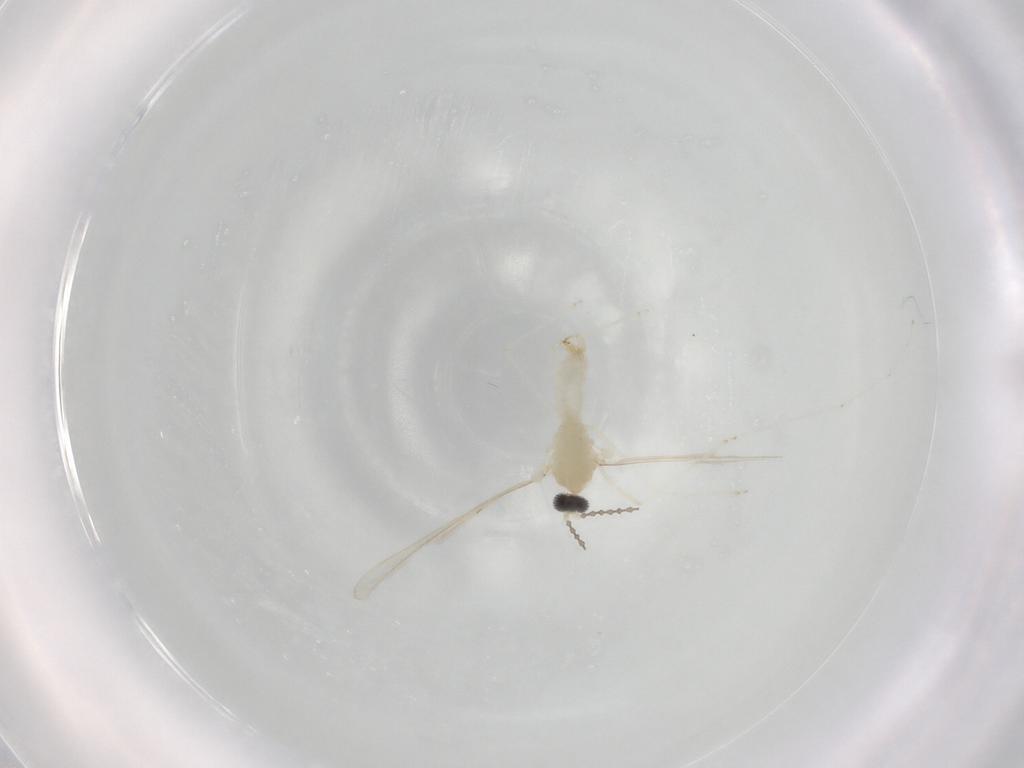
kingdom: Animalia
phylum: Arthropoda
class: Insecta
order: Diptera
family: Cecidomyiidae
